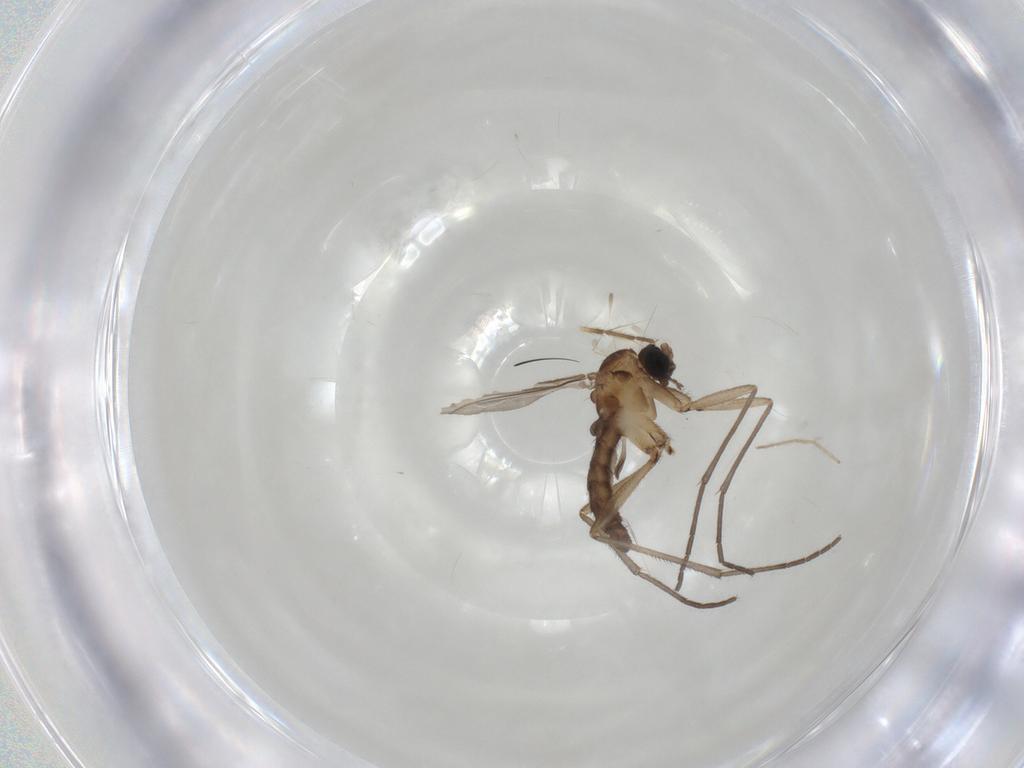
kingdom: Animalia
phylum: Arthropoda
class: Insecta
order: Diptera
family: Sciaridae
